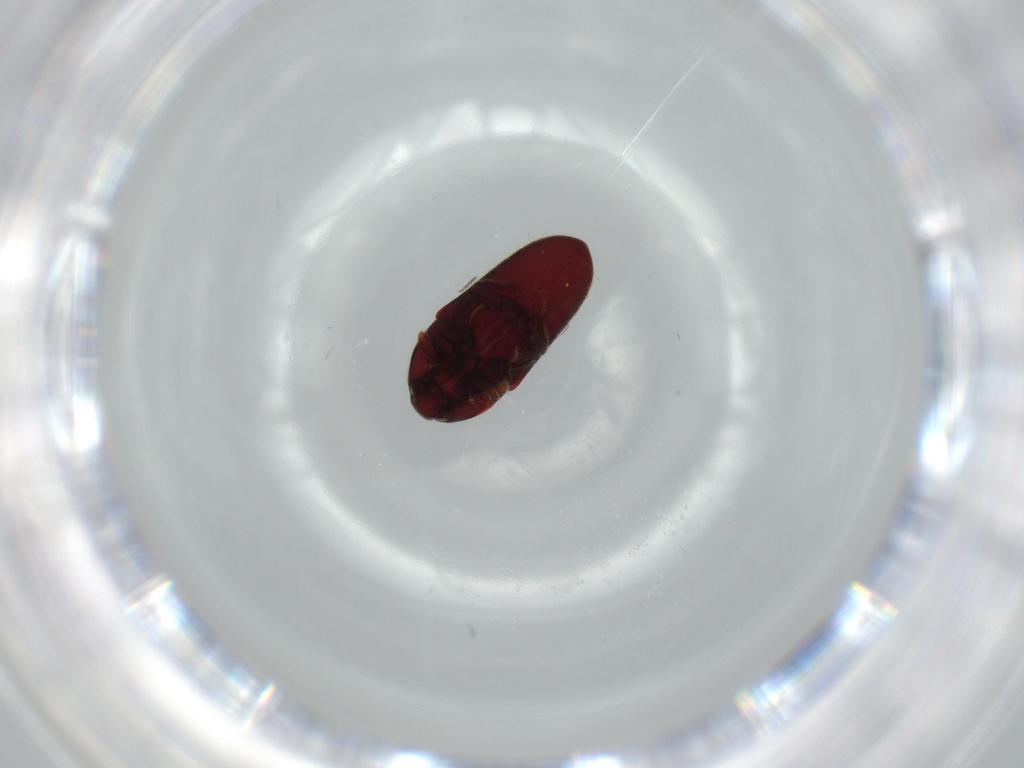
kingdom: Animalia
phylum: Arthropoda
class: Insecta
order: Coleoptera
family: Throscidae
